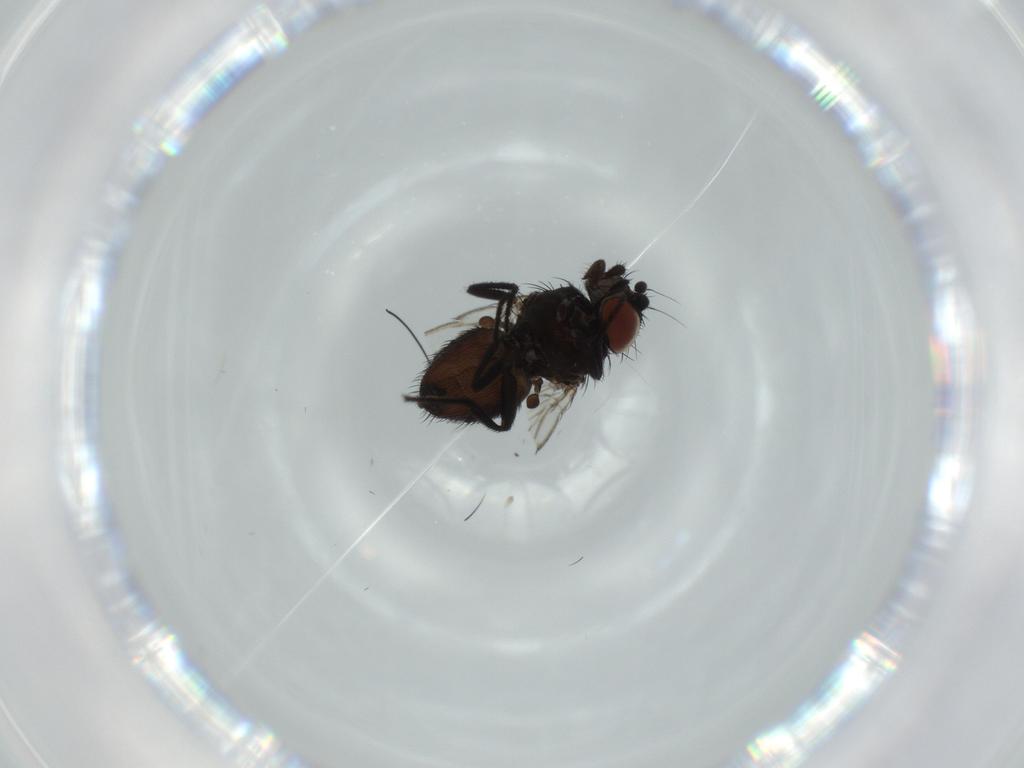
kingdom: Animalia
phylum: Arthropoda
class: Insecta
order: Diptera
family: Milichiidae
